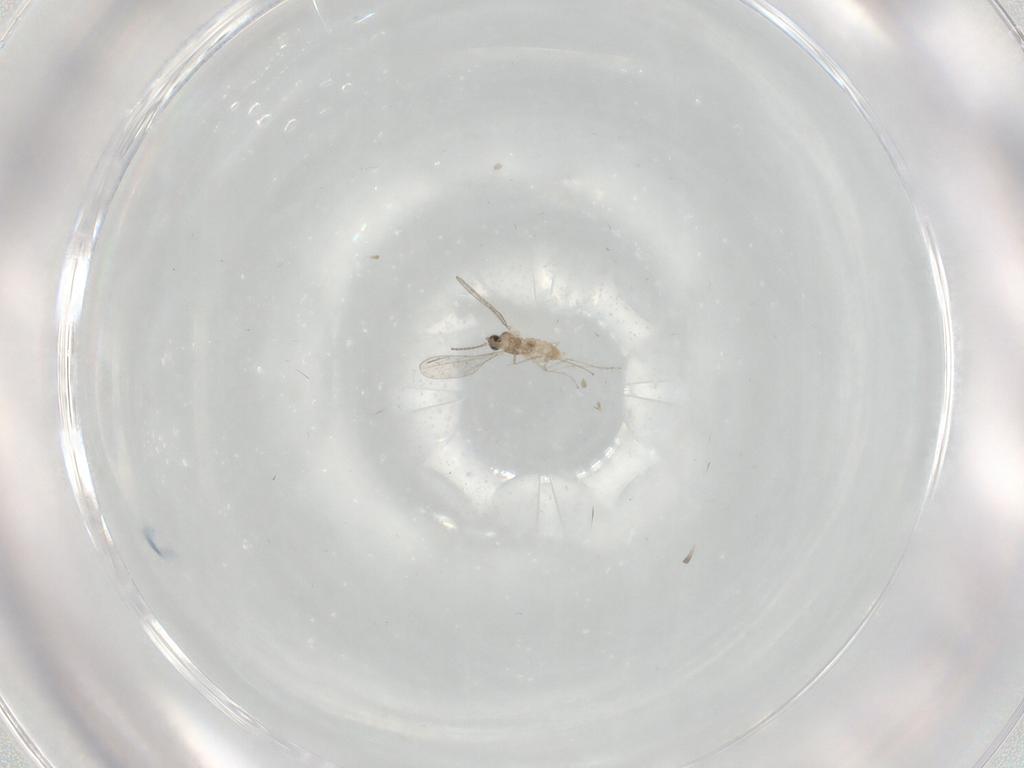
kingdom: Animalia
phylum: Arthropoda
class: Insecta
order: Diptera
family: Cecidomyiidae
